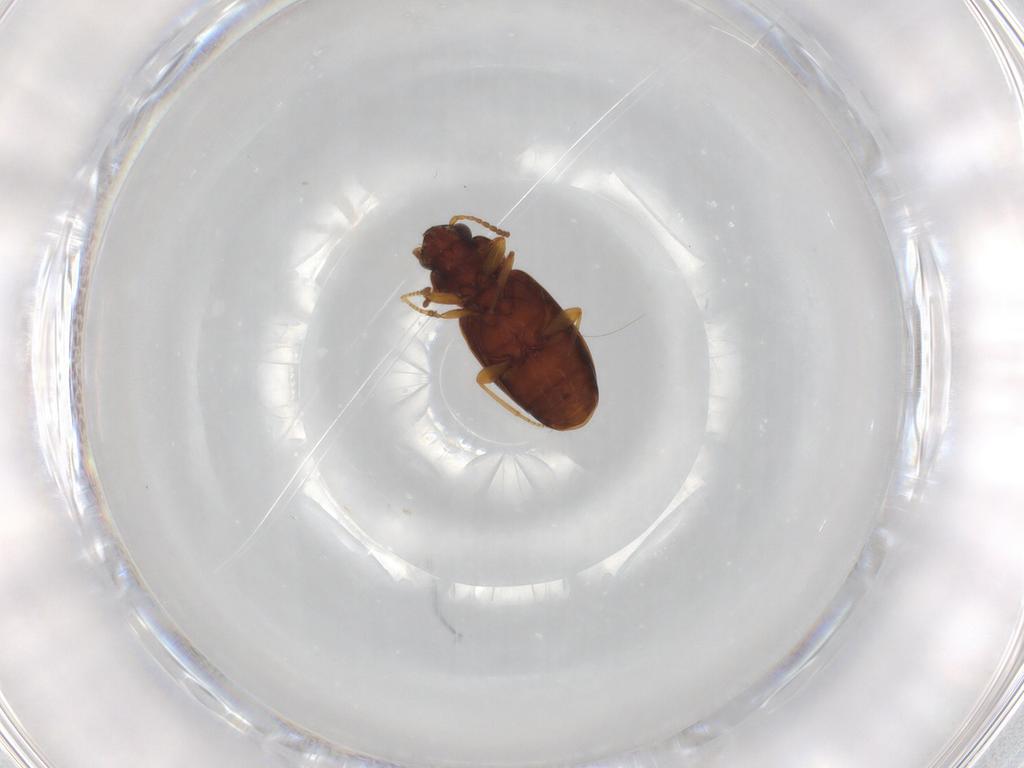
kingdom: Animalia
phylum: Arthropoda
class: Insecta
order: Coleoptera
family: Carabidae
